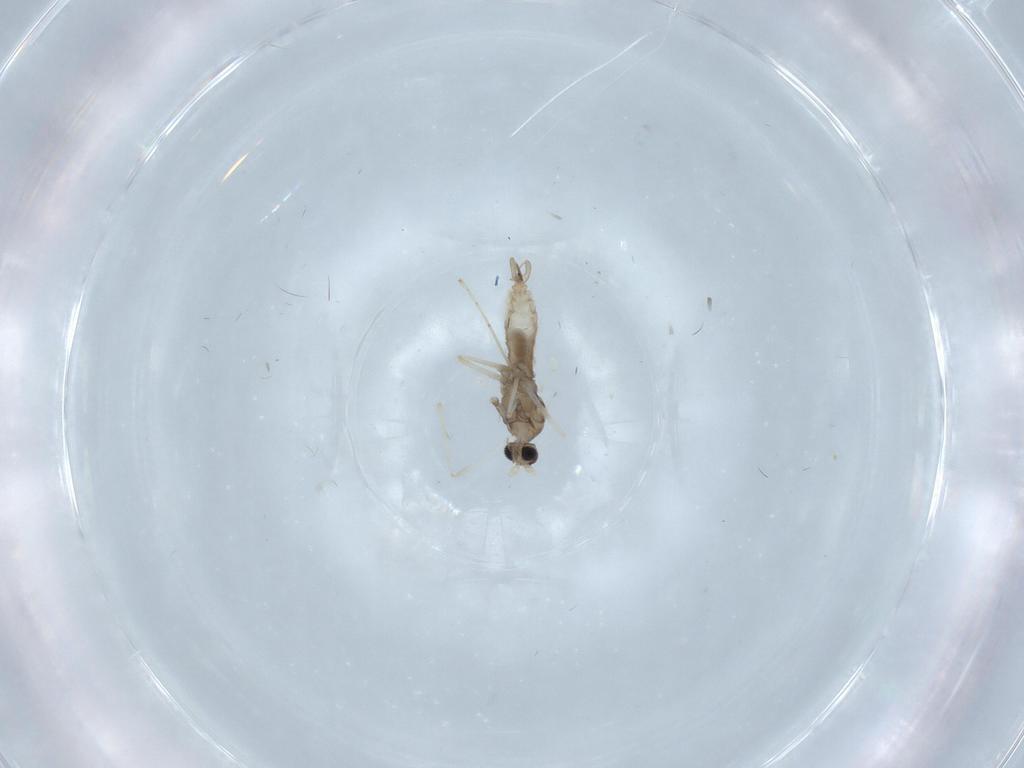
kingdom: Animalia
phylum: Arthropoda
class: Insecta
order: Diptera
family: Cecidomyiidae
